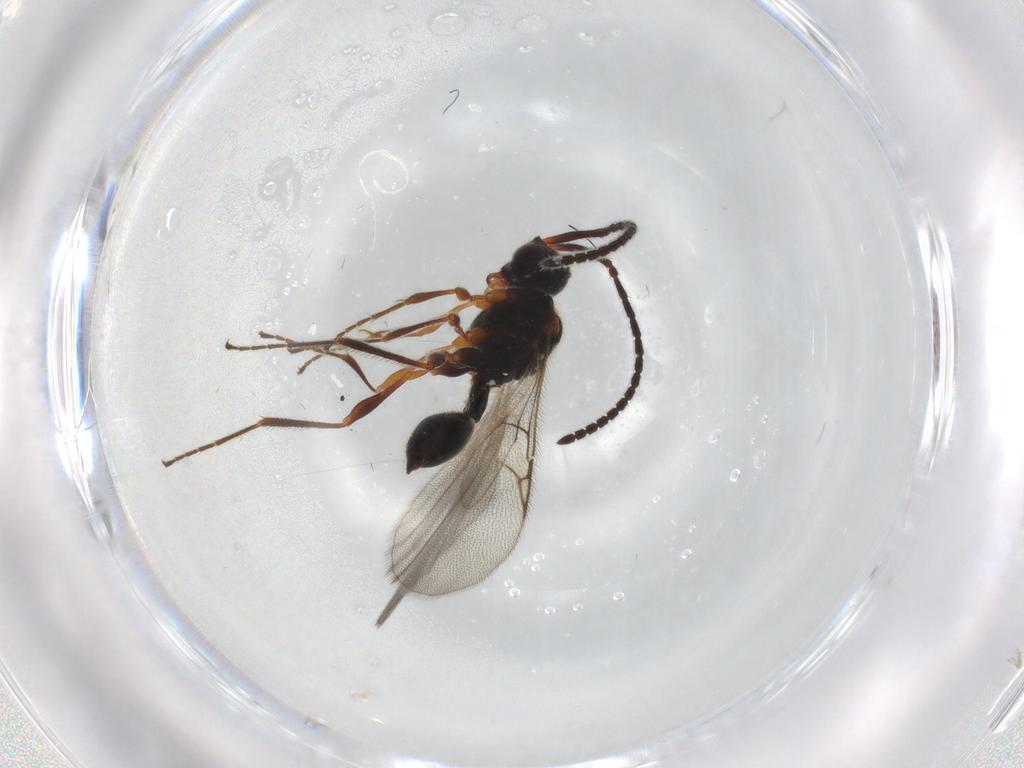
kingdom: Animalia
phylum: Arthropoda
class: Insecta
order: Hymenoptera
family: Diapriidae
